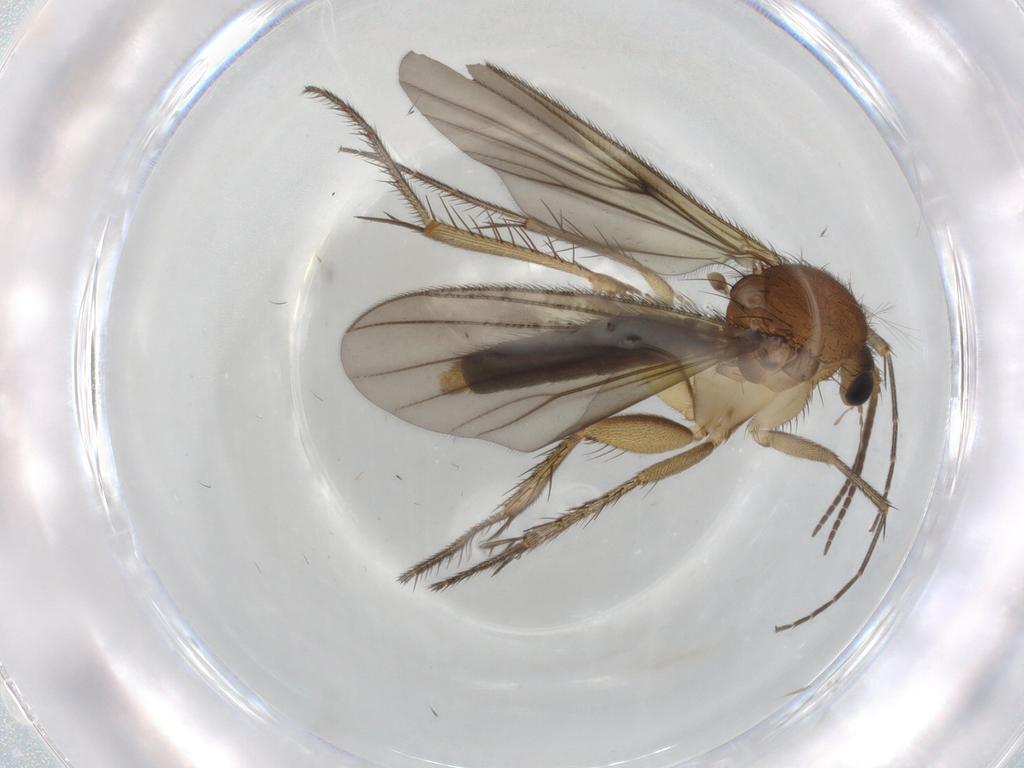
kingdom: Animalia
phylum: Arthropoda
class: Insecta
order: Diptera
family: Mycetophilidae
